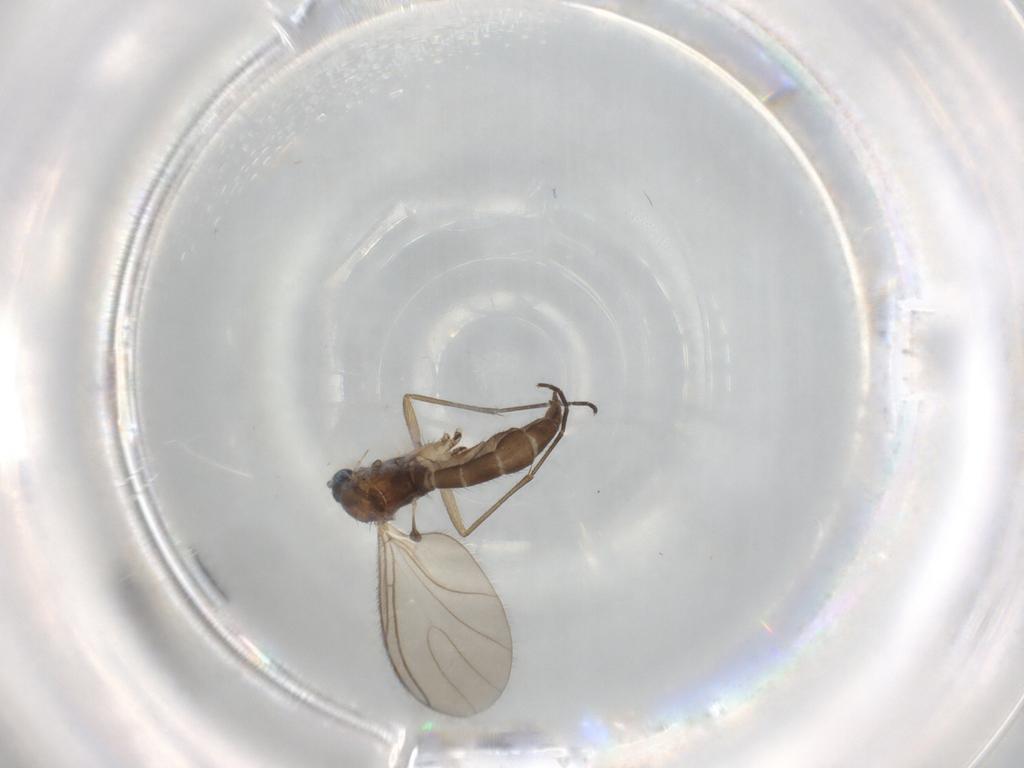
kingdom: Animalia
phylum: Arthropoda
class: Insecta
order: Diptera
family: Sciaridae
